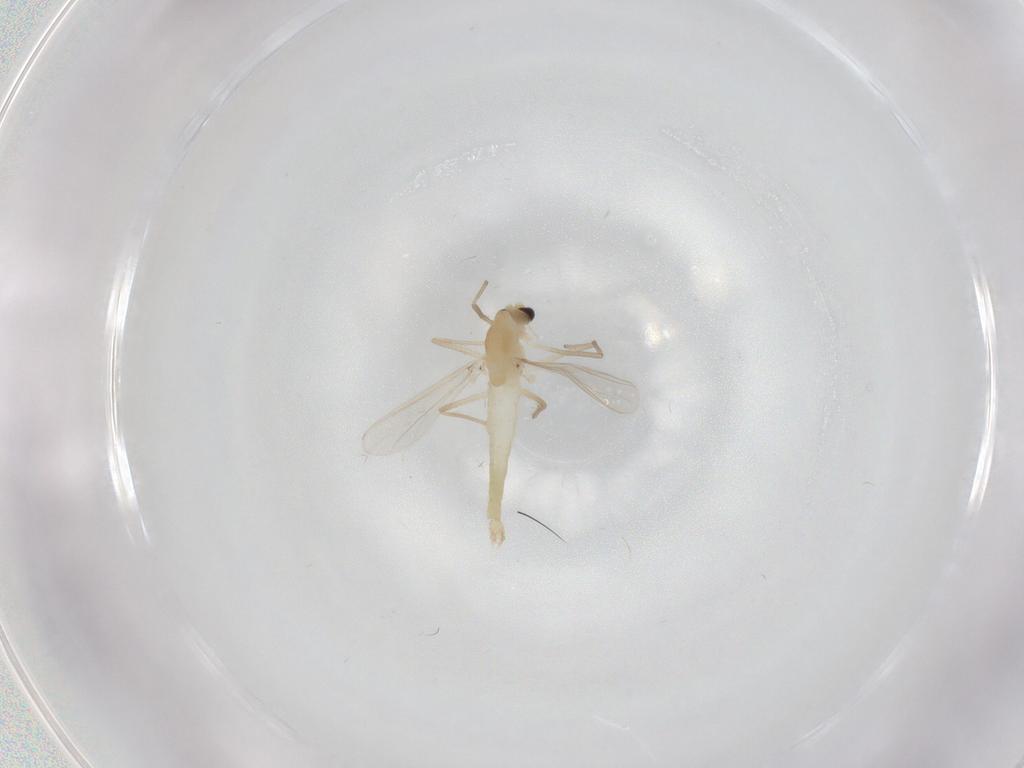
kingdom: Animalia
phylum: Arthropoda
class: Insecta
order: Diptera
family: Chironomidae
